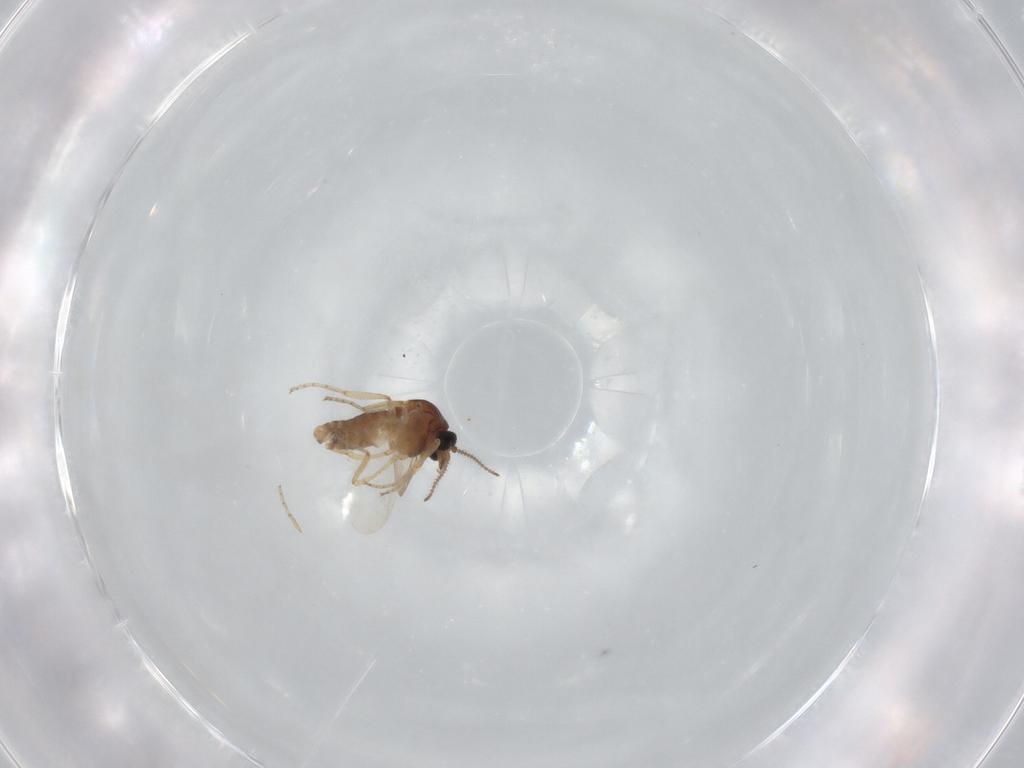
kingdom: Animalia
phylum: Arthropoda
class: Insecta
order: Diptera
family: Ceratopogonidae
